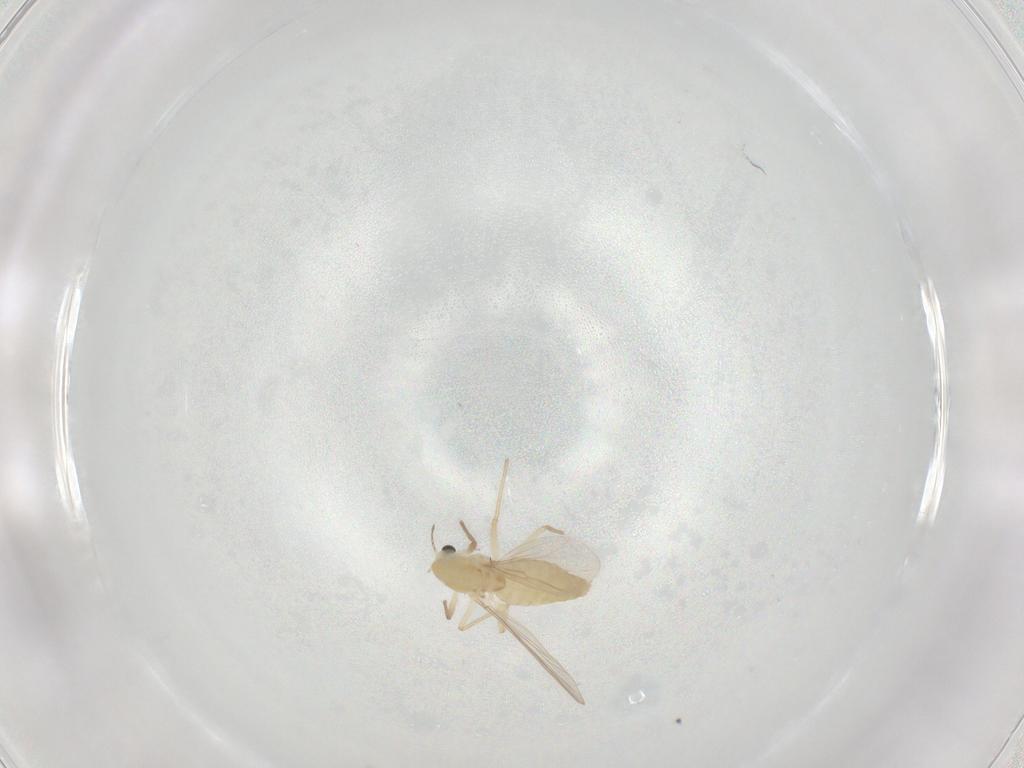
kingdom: Animalia
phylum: Arthropoda
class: Insecta
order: Diptera
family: Chironomidae
